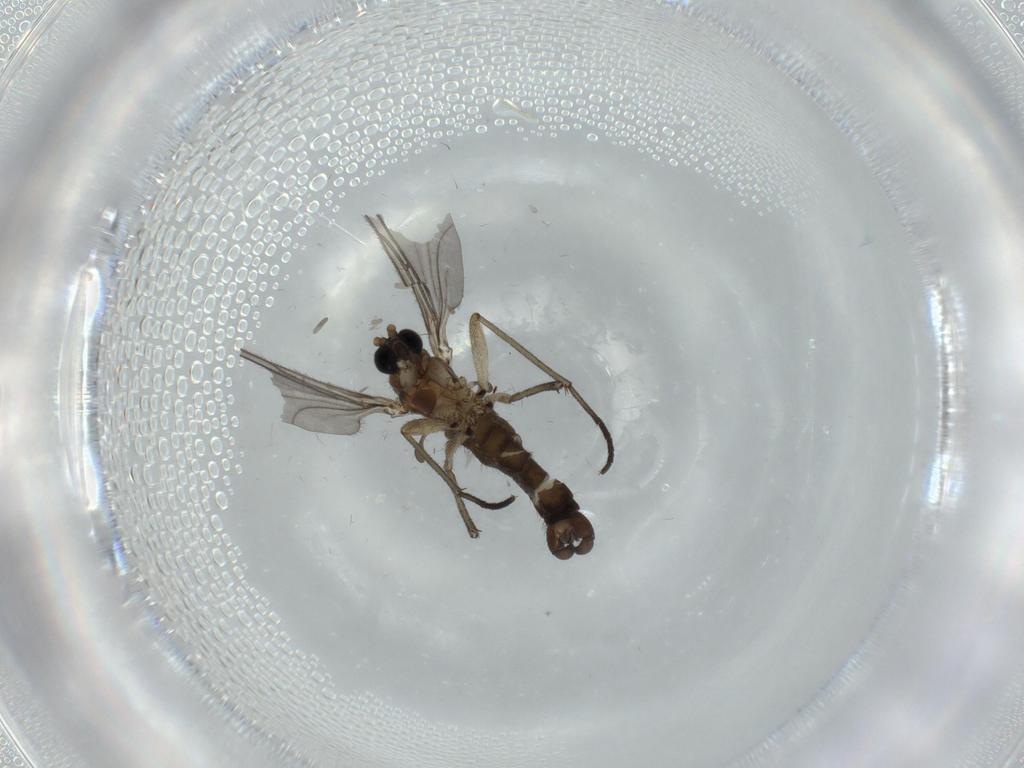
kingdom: Animalia
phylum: Arthropoda
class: Insecta
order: Diptera
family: Sciaridae
